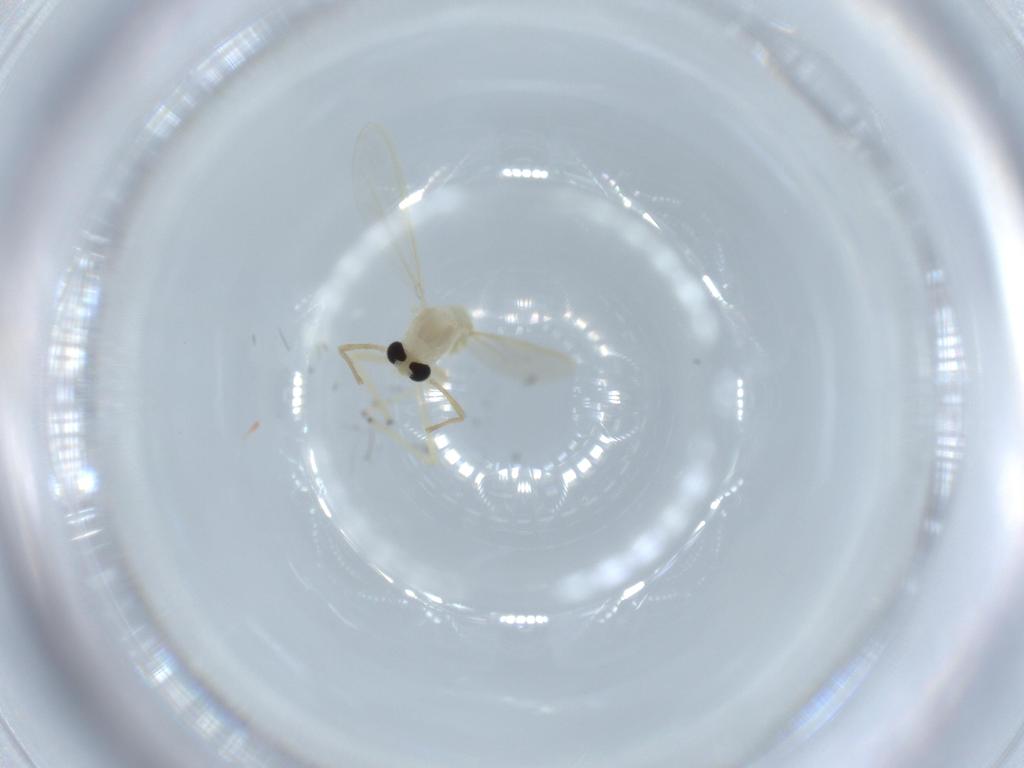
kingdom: Animalia
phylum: Arthropoda
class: Insecta
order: Diptera
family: Chironomidae
